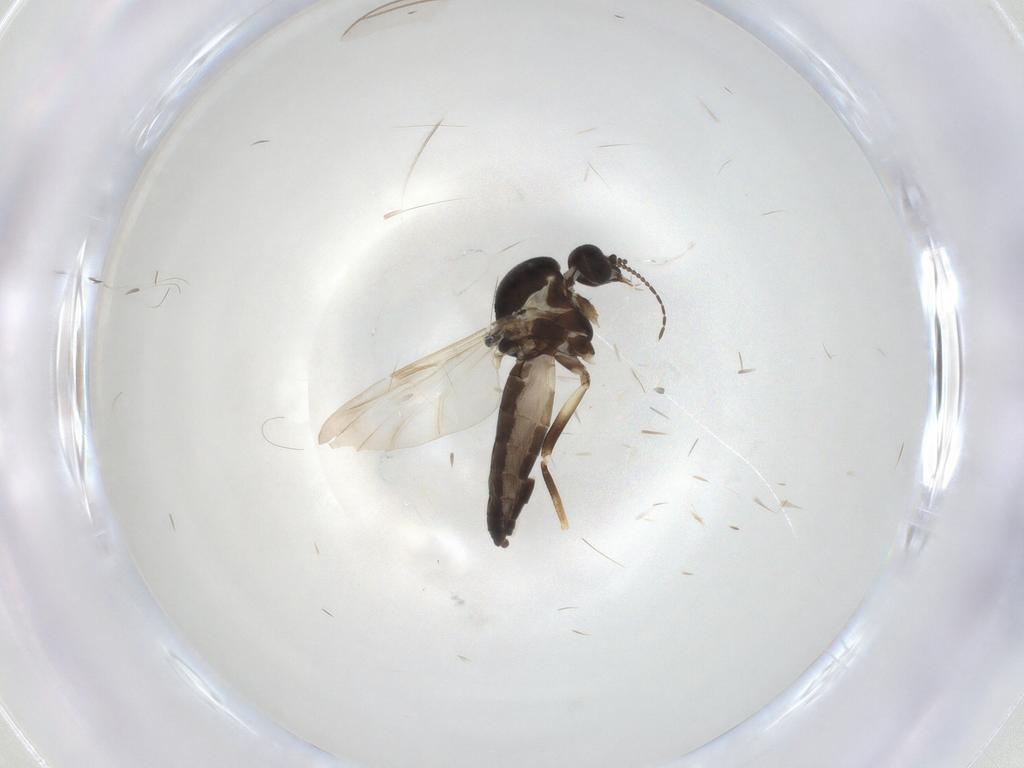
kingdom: Animalia
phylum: Arthropoda
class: Insecta
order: Diptera
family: Ceratopogonidae
